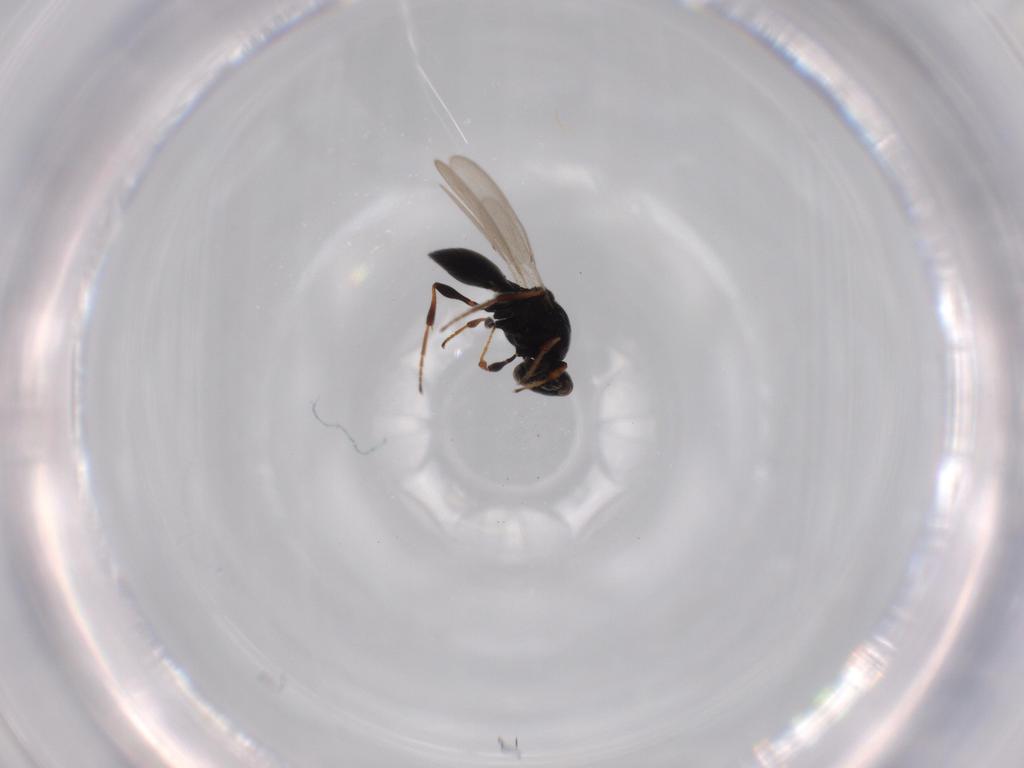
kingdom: Animalia
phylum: Arthropoda
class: Insecta
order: Hymenoptera
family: Platygastridae
